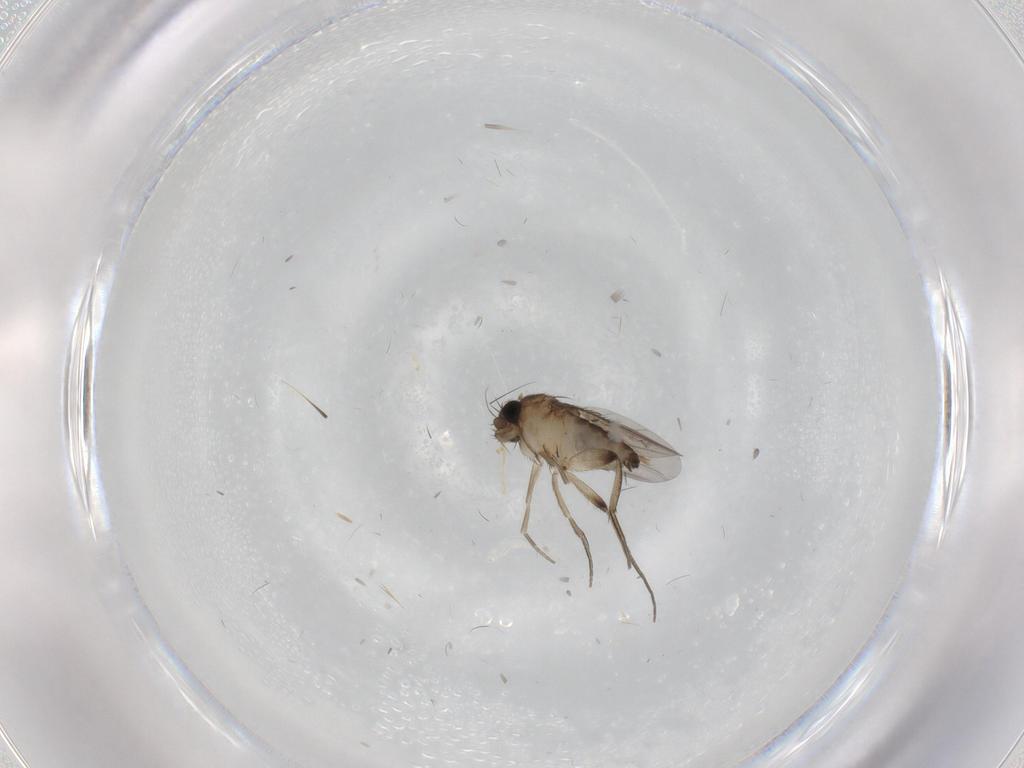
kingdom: Animalia
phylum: Arthropoda
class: Insecta
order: Diptera
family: Phoridae
